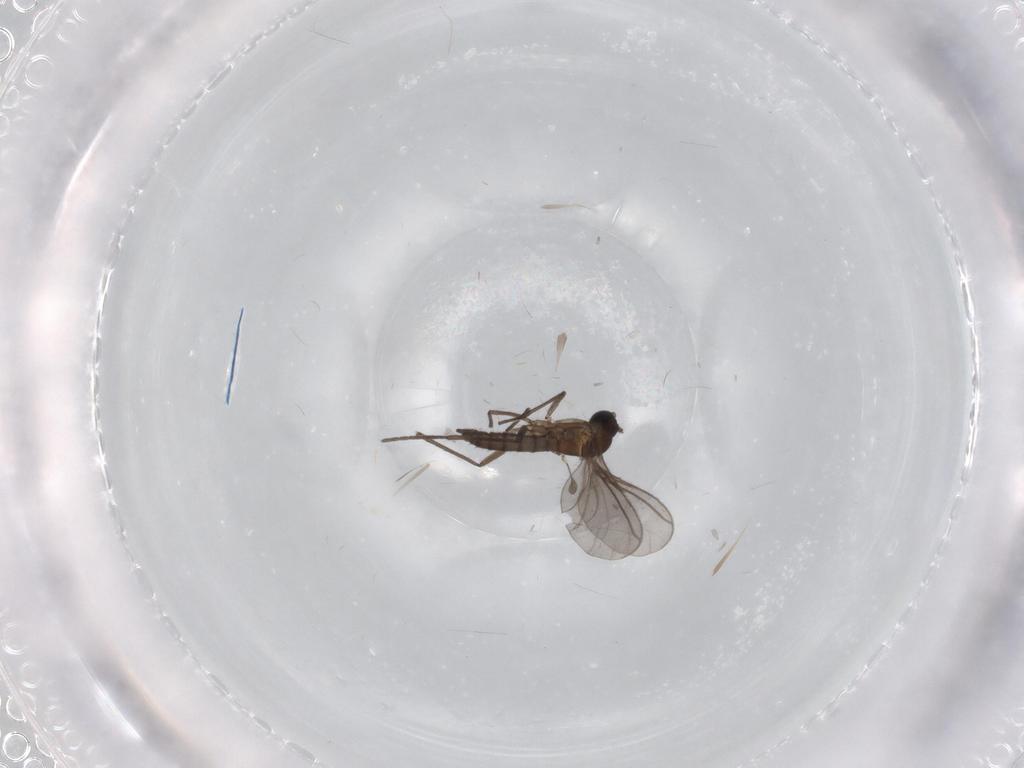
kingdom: Animalia
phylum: Arthropoda
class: Insecta
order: Diptera
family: Psychodidae
